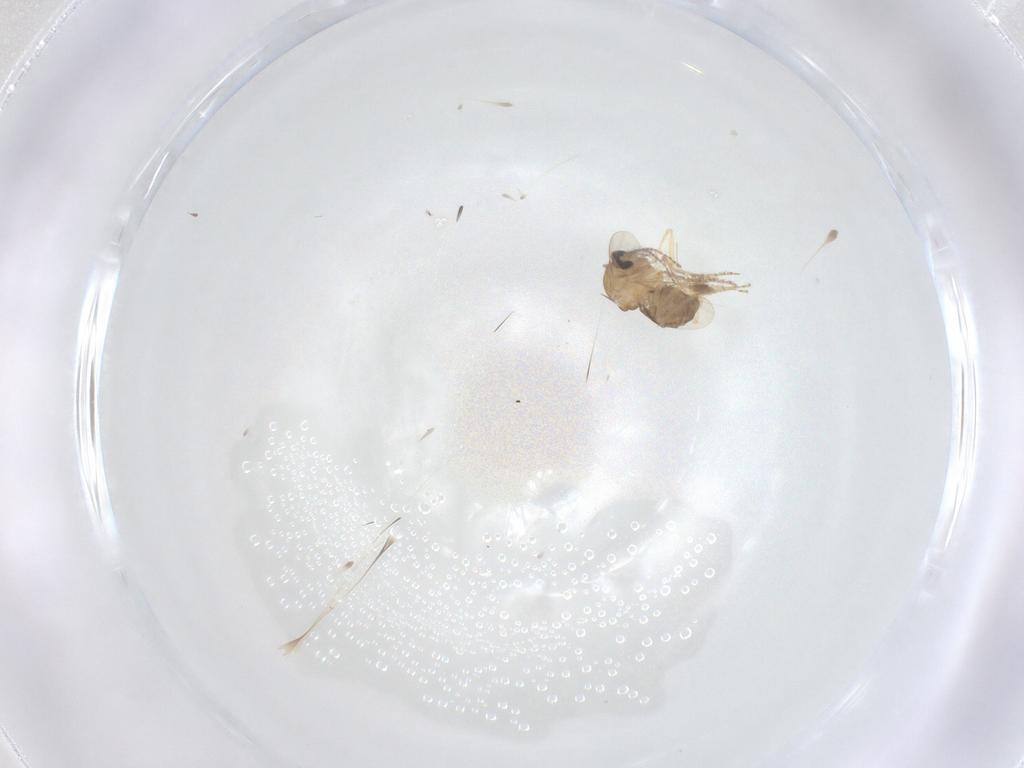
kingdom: Animalia
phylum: Arthropoda
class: Insecta
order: Diptera
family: Ceratopogonidae
